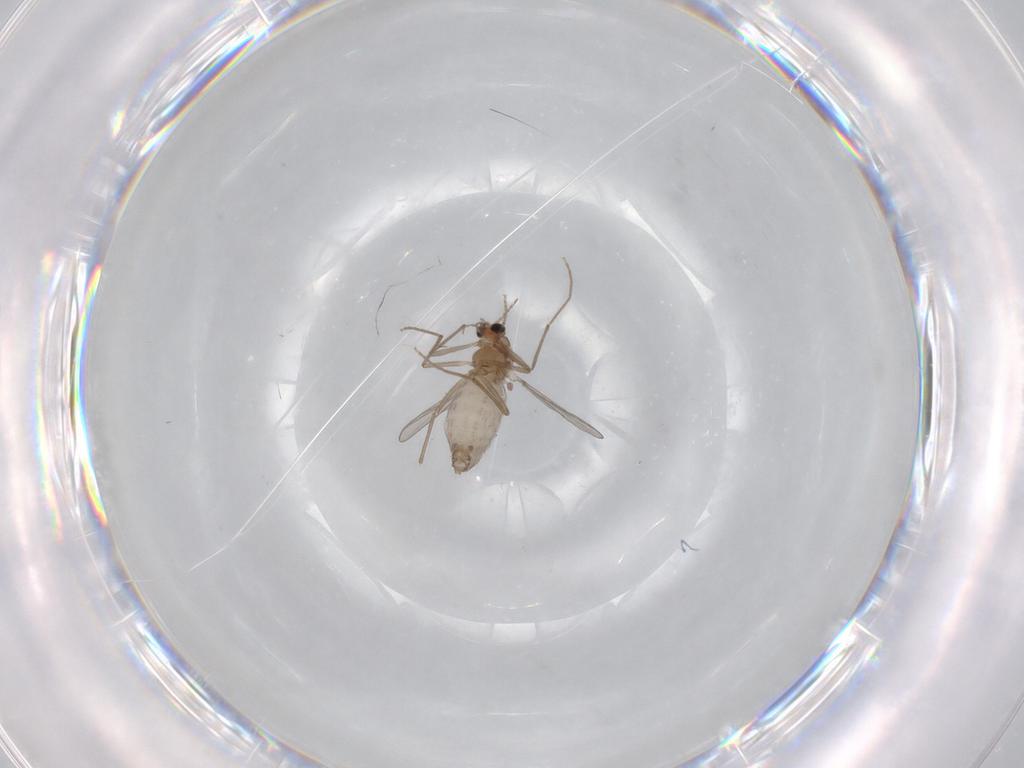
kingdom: Animalia
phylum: Arthropoda
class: Insecta
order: Diptera
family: Chironomidae
